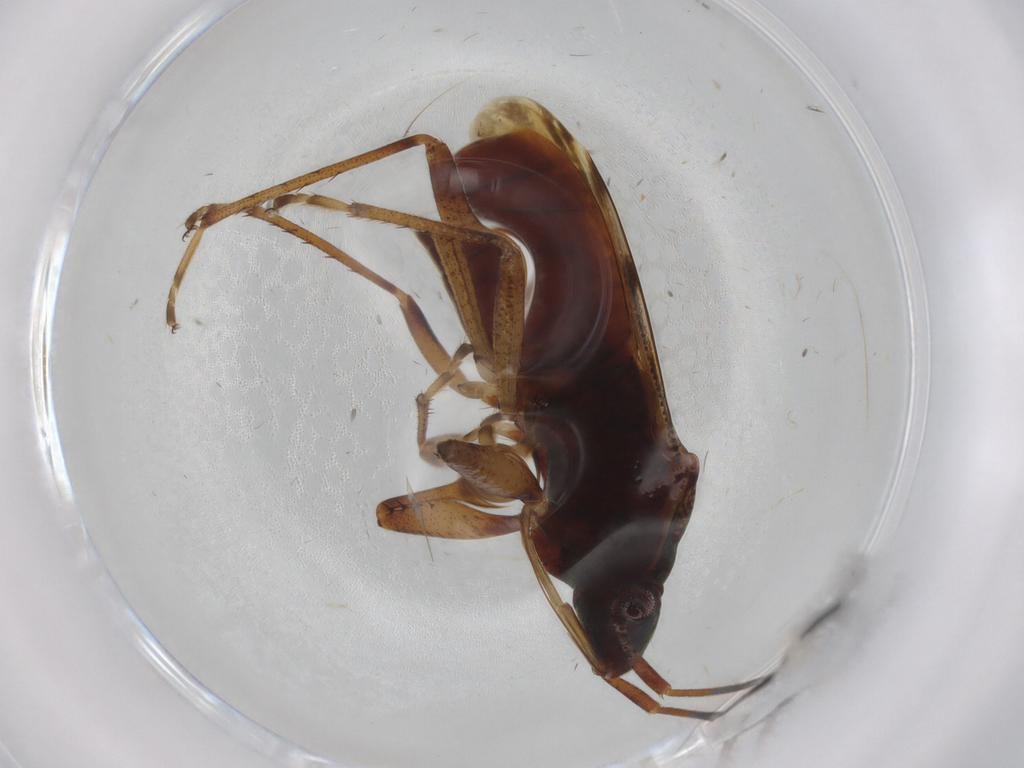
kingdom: Animalia
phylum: Arthropoda
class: Insecta
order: Hemiptera
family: Rhyparochromidae
